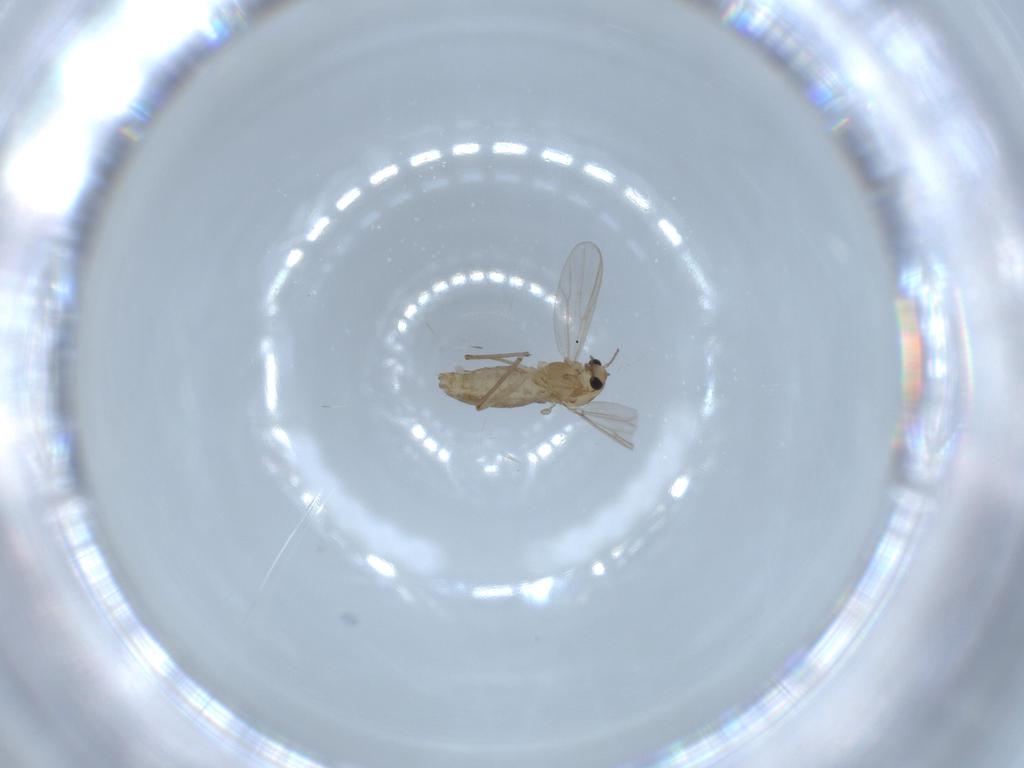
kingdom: Animalia
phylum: Arthropoda
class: Insecta
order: Diptera
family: Chironomidae
